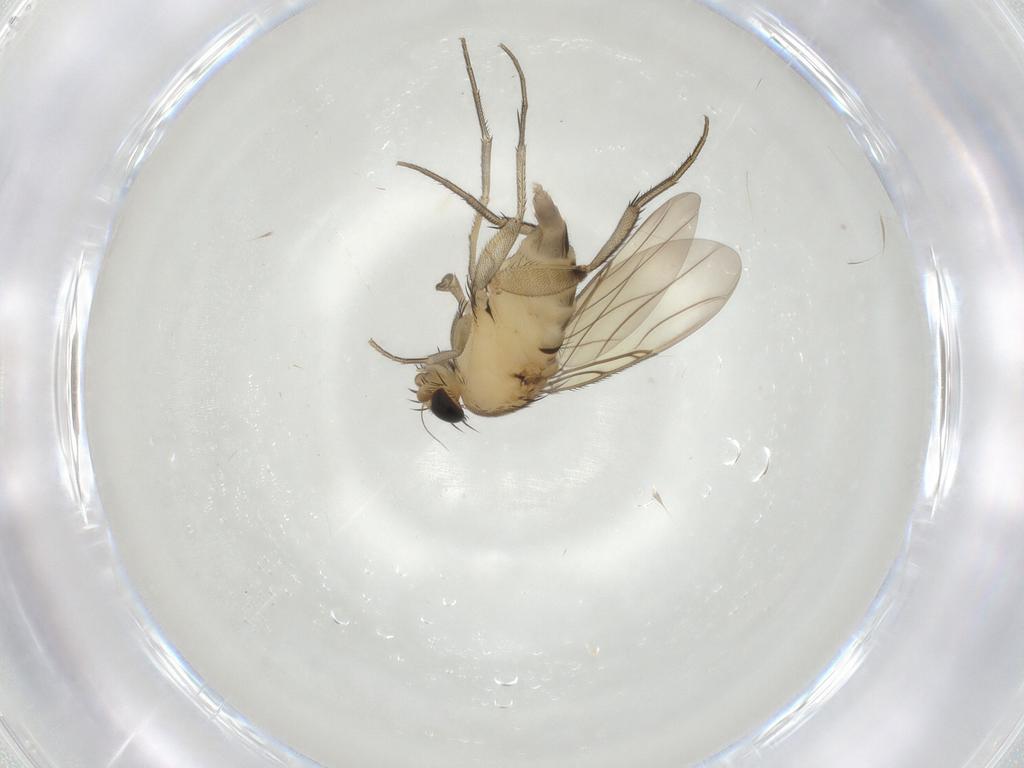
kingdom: Animalia
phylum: Arthropoda
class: Insecta
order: Diptera
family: Phoridae
